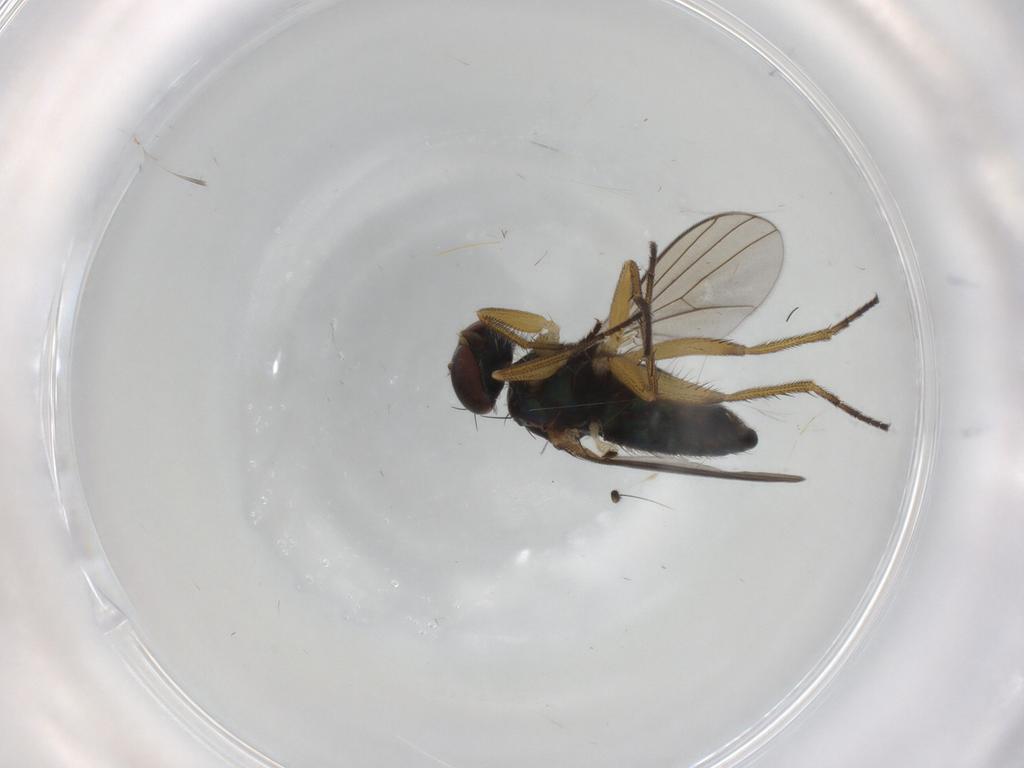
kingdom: Animalia
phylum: Arthropoda
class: Insecta
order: Diptera
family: Dolichopodidae
